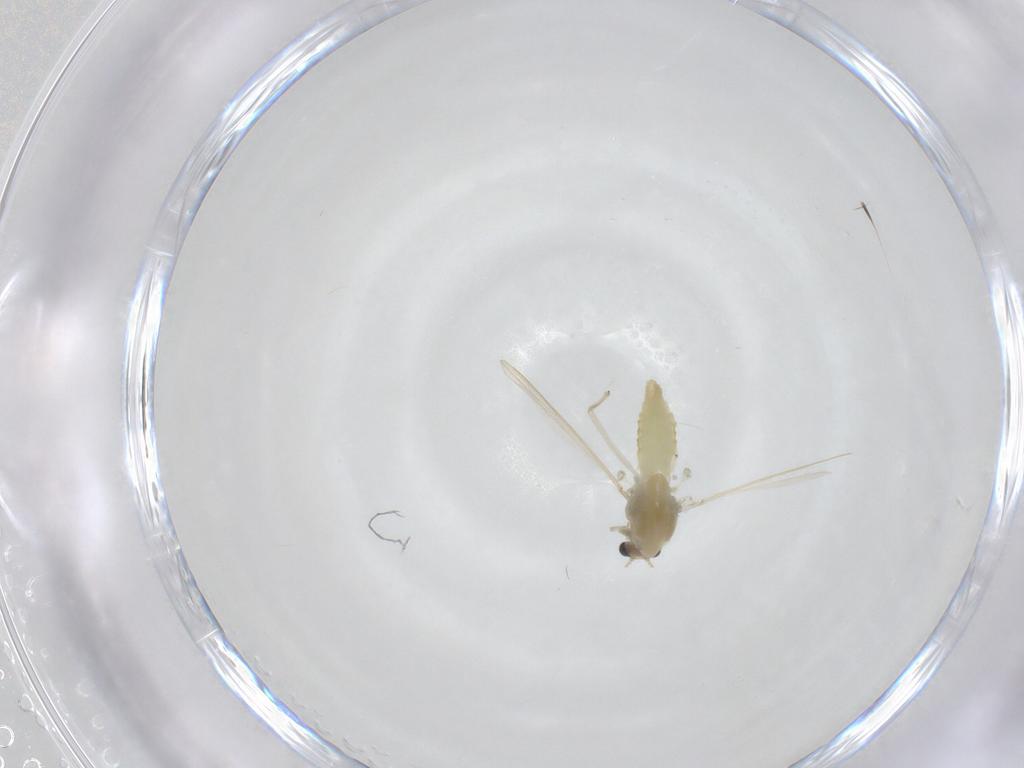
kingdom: Animalia
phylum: Arthropoda
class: Insecta
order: Diptera
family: Chironomidae
